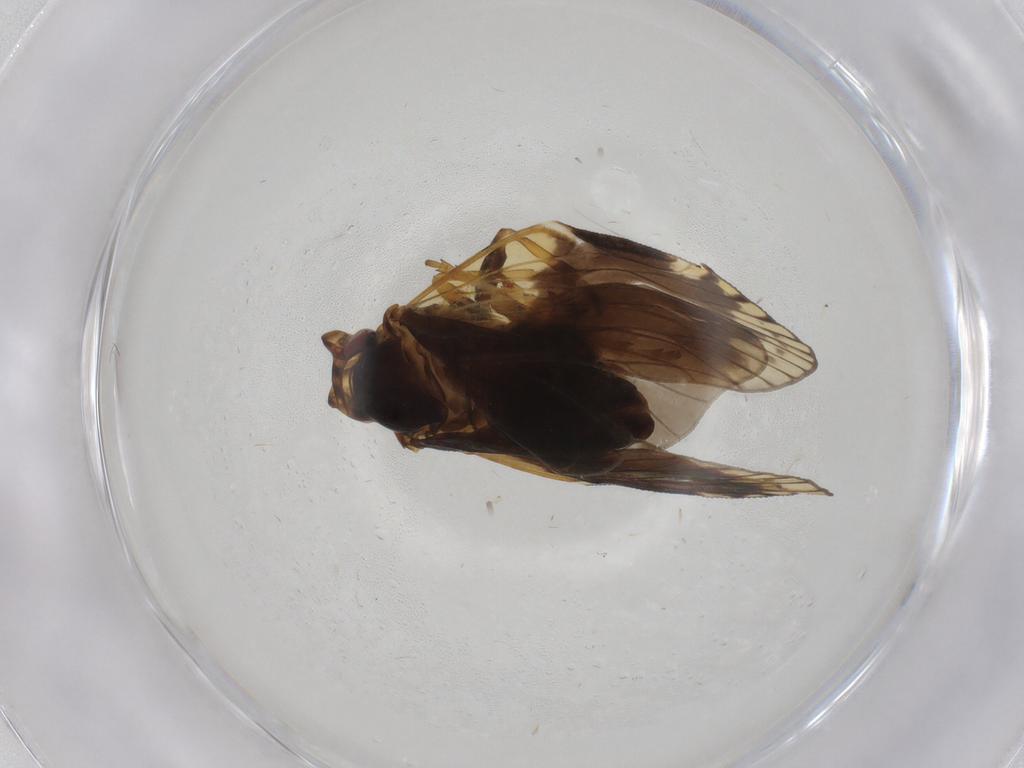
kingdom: Animalia
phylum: Arthropoda
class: Insecta
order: Hemiptera
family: Cixiidae
